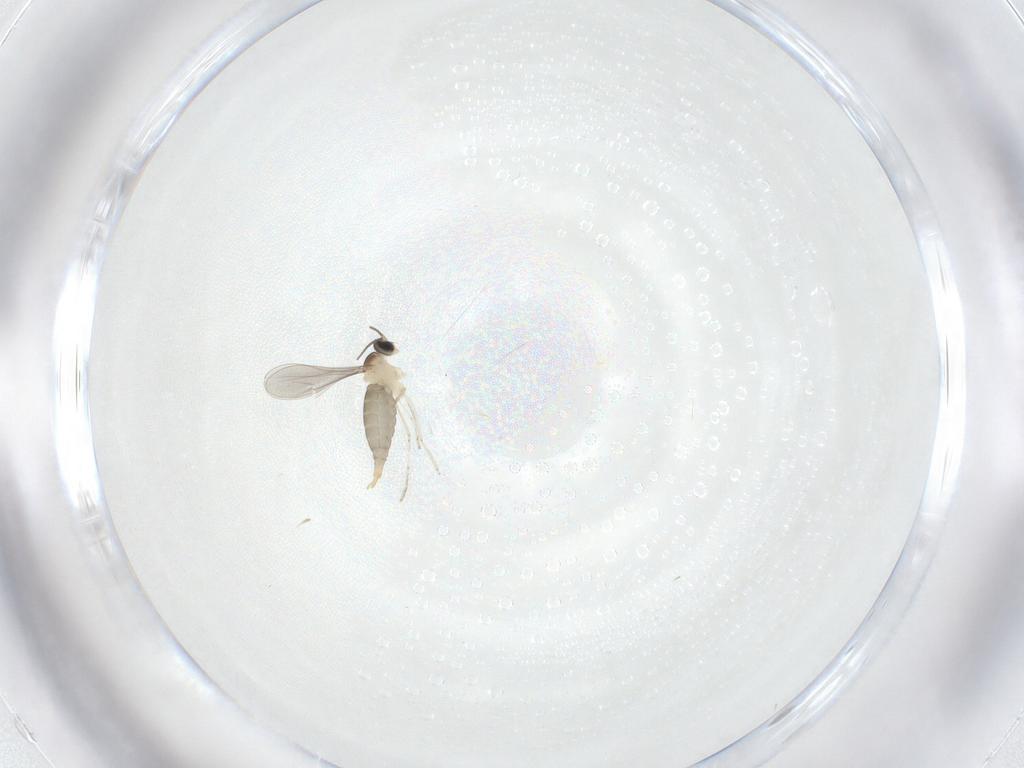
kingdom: Animalia
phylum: Arthropoda
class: Insecta
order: Diptera
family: Cecidomyiidae
